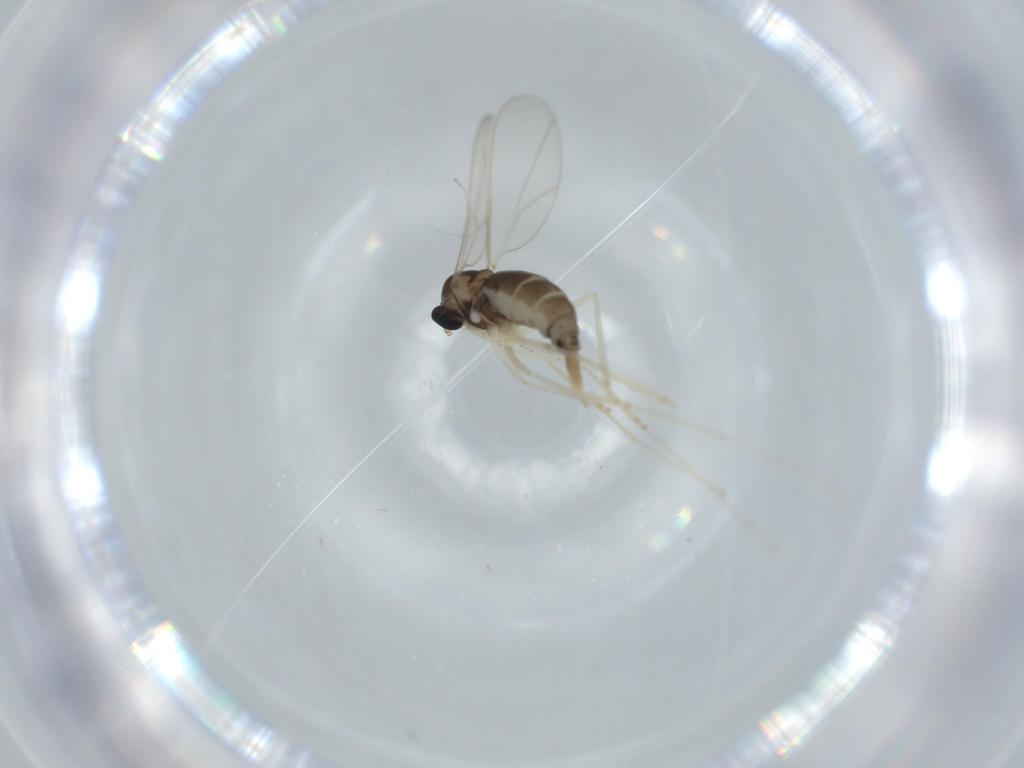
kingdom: Animalia
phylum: Arthropoda
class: Insecta
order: Diptera
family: Cecidomyiidae
